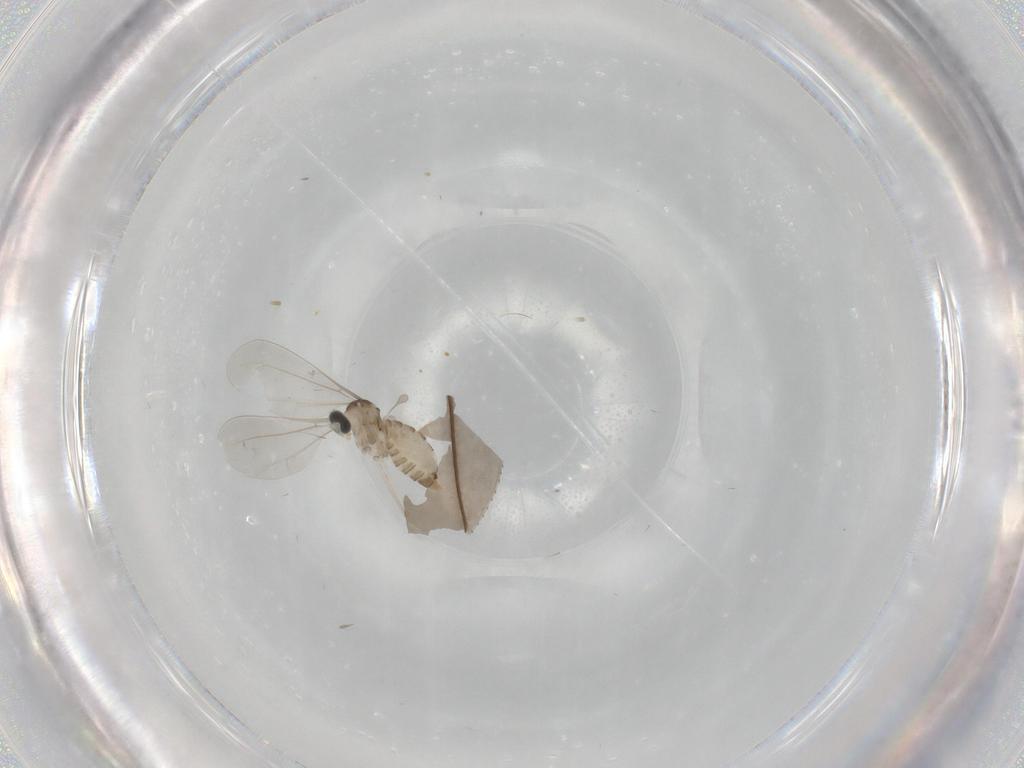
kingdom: Animalia
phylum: Arthropoda
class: Insecta
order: Diptera
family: Cecidomyiidae
